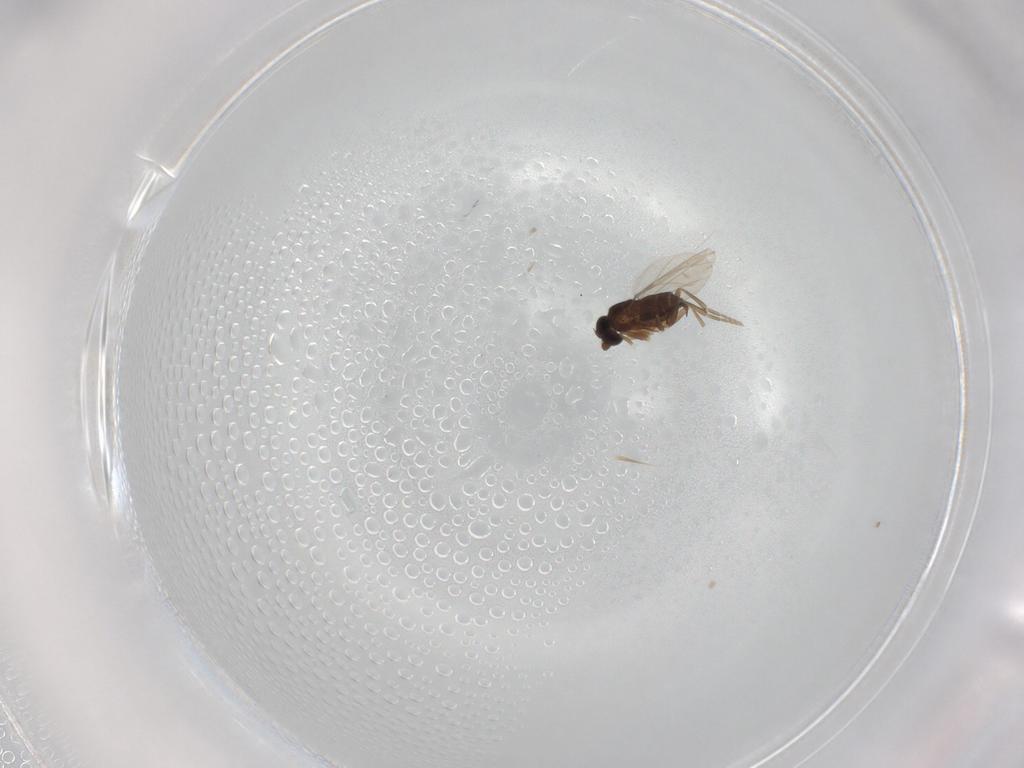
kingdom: Animalia
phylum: Arthropoda
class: Insecta
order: Diptera
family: Phoridae
